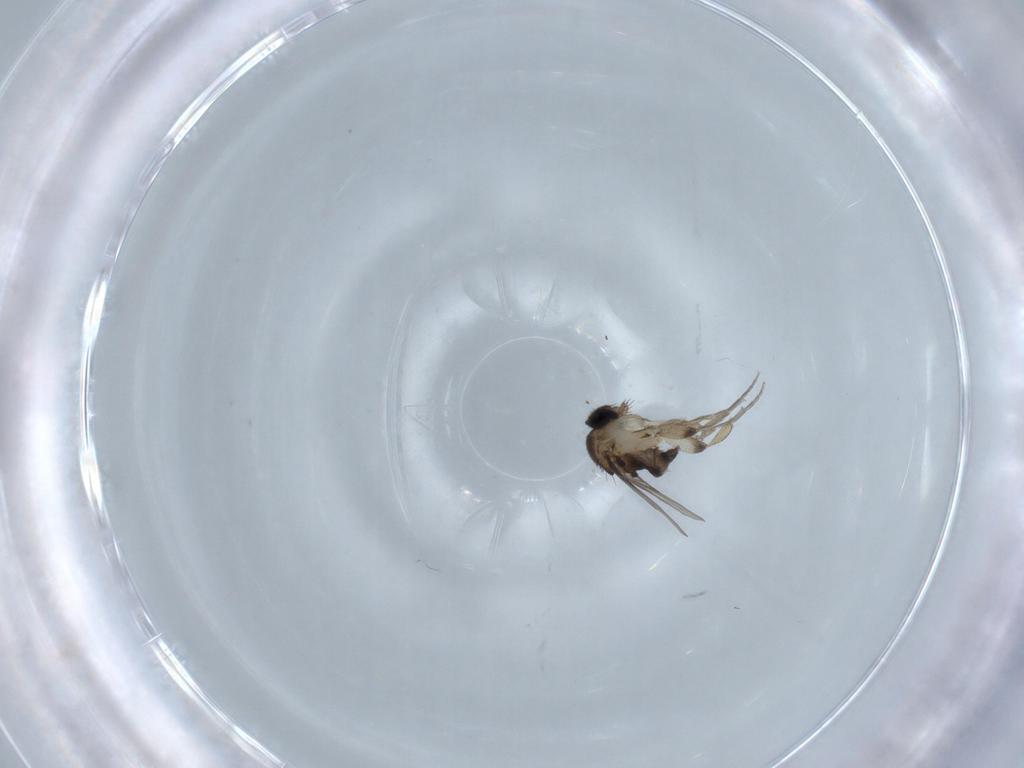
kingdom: Animalia
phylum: Arthropoda
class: Insecta
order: Diptera
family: Phoridae
